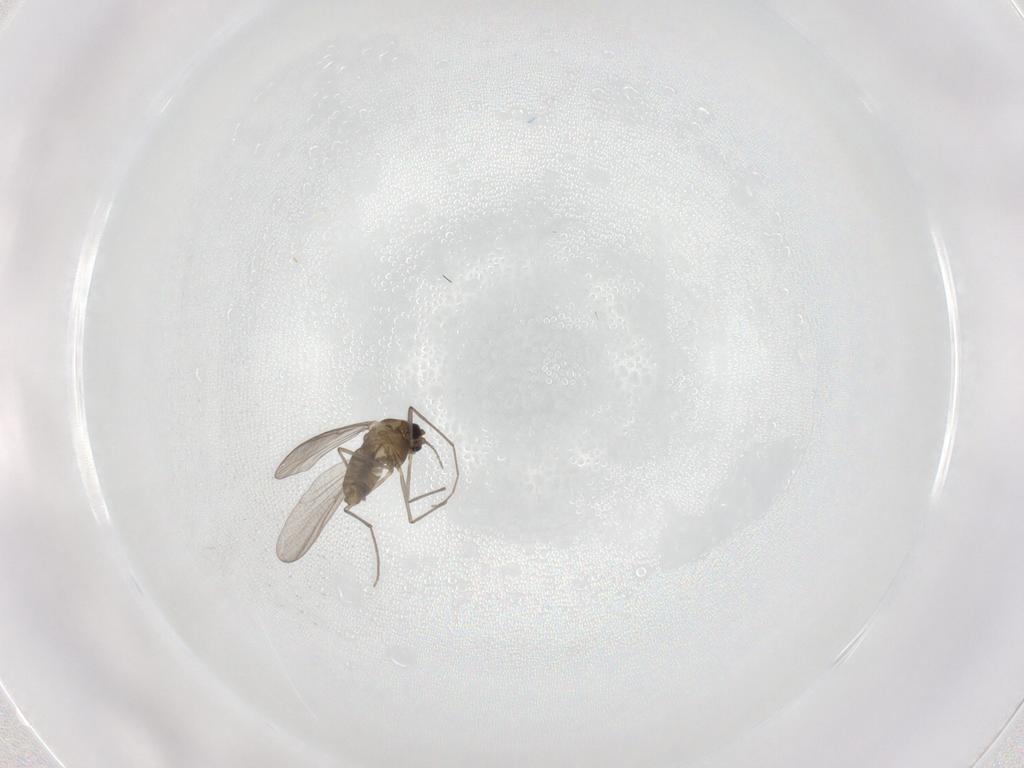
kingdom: Animalia
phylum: Arthropoda
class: Insecta
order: Diptera
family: Chironomidae
